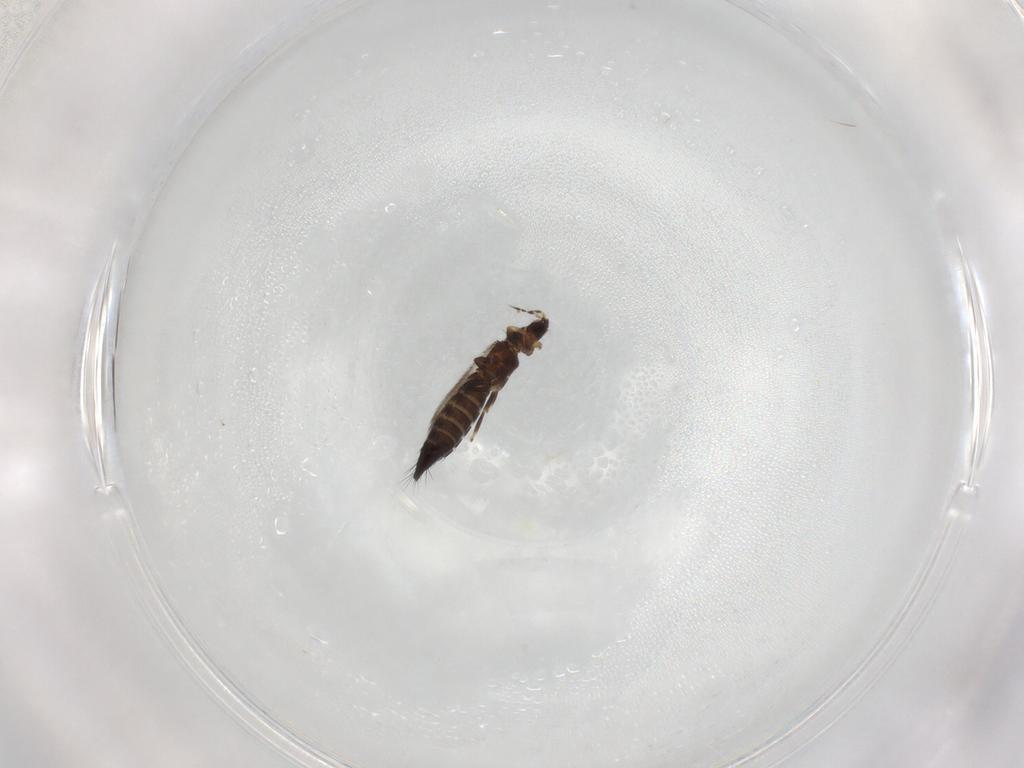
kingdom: Animalia
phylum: Arthropoda
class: Insecta
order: Thysanoptera
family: Thripidae
